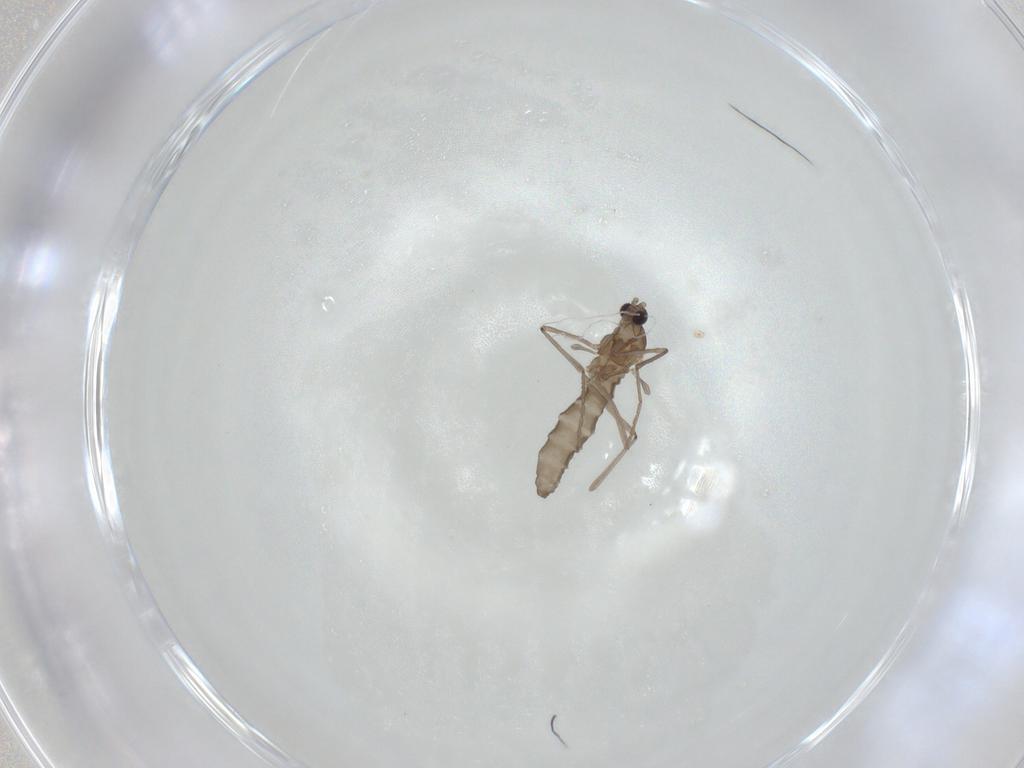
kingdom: Animalia
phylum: Arthropoda
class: Insecta
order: Diptera
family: Cecidomyiidae
